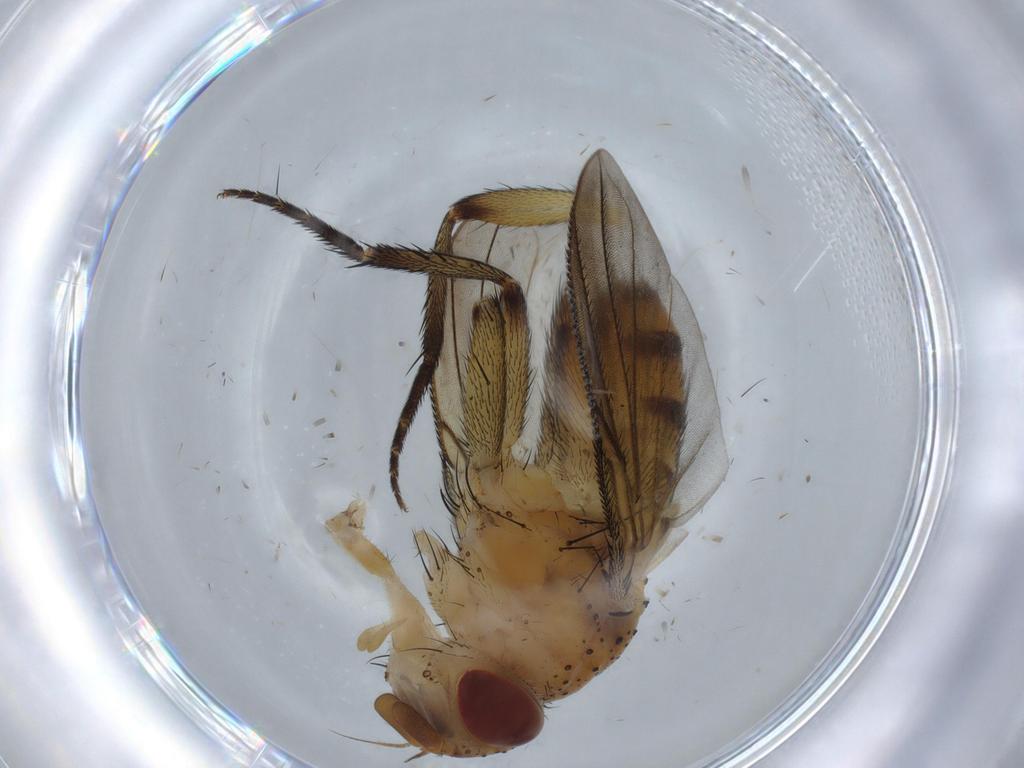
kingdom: Animalia
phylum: Arthropoda
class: Insecta
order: Diptera
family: Tachinidae
